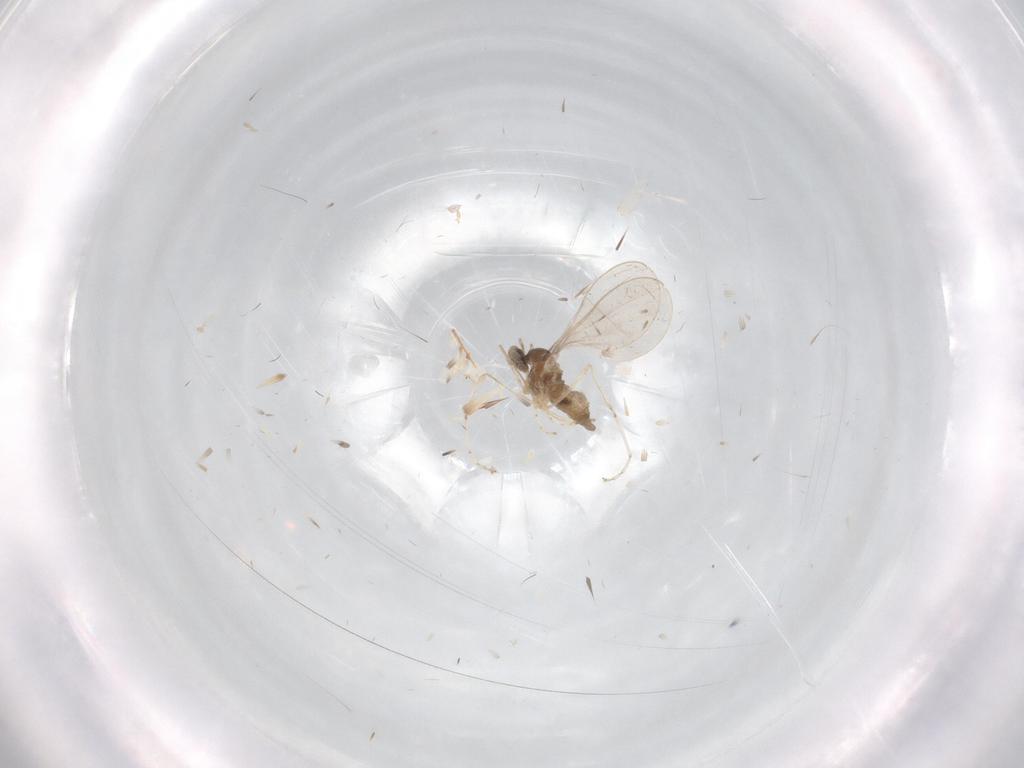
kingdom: Animalia
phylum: Arthropoda
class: Insecta
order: Diptera
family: Cecidomyiidae
